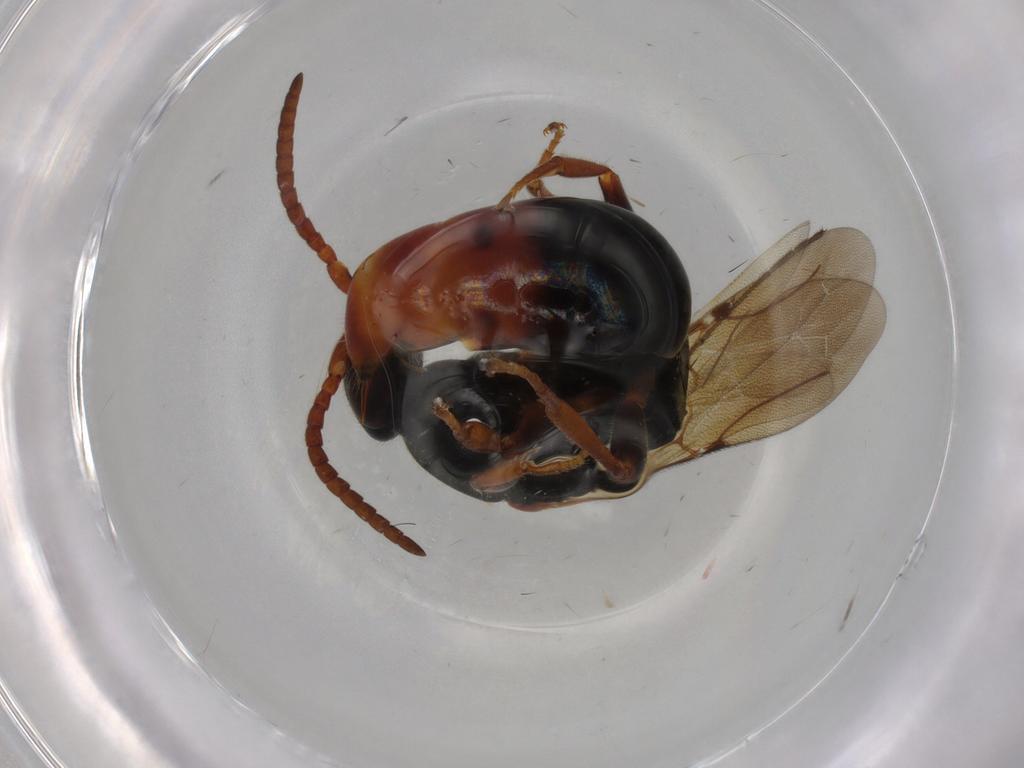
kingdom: Animalia
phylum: Arthropoda
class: Insecta
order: Hymenoptera
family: Bethylidae
